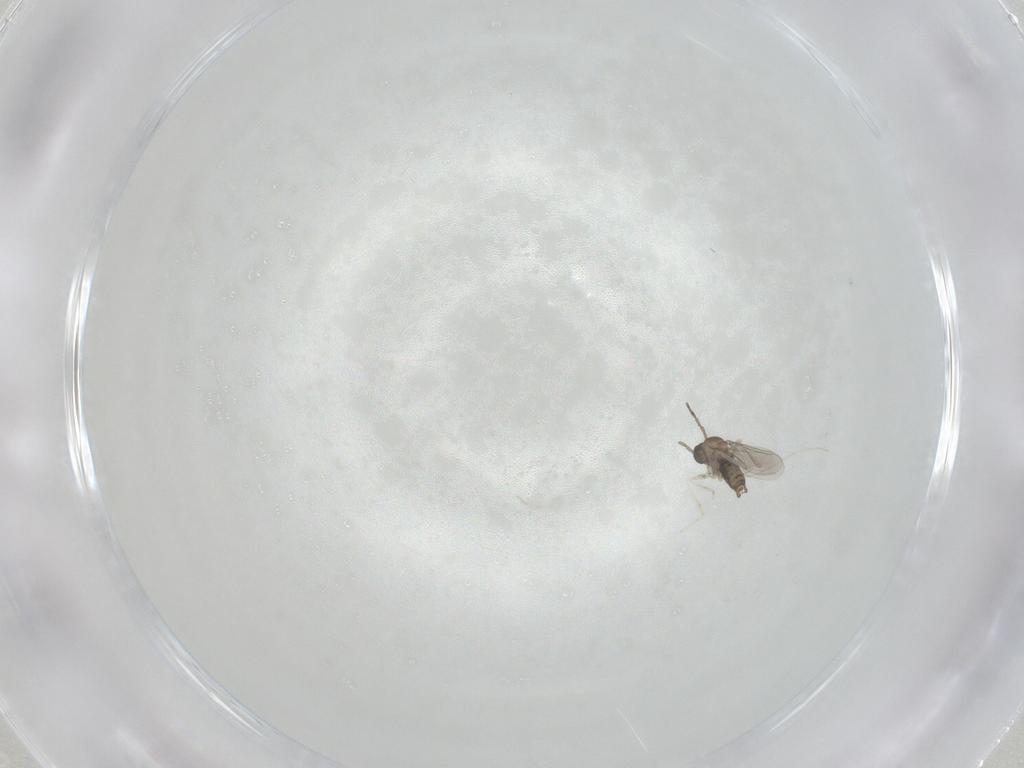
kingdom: Animalia
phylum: Arthropoda
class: Insecta
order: Diptera
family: Cecidomyiidae
